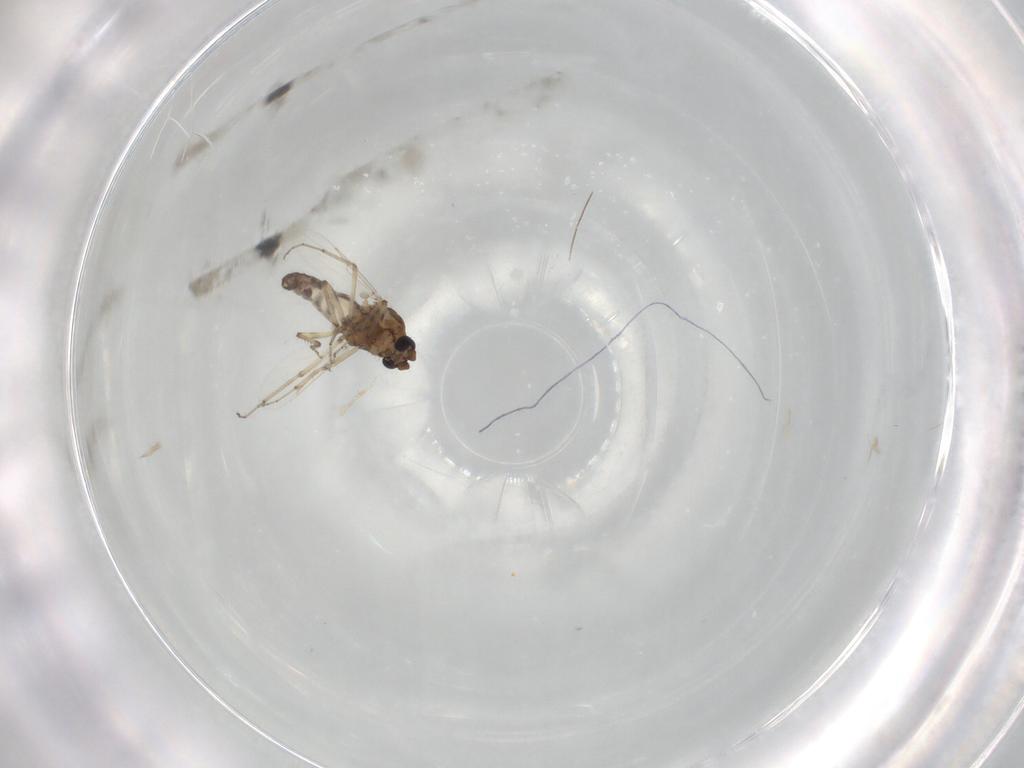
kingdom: Animalia
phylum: Arthropoda
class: Insecta
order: Diptera
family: Ceratopogonidae
